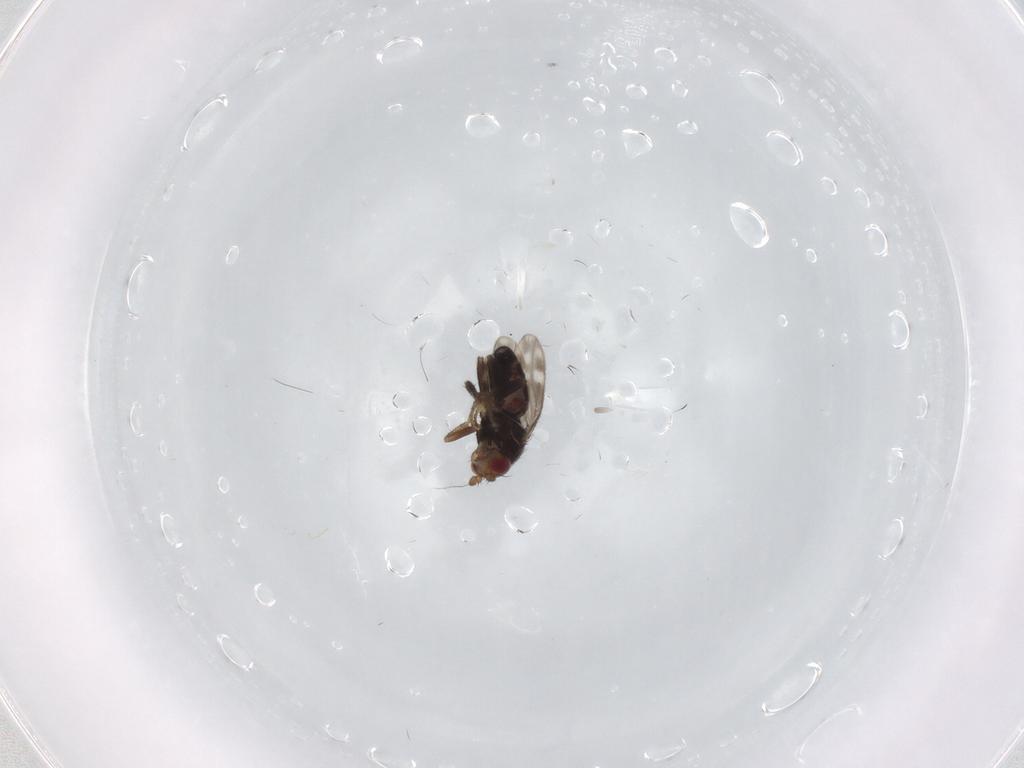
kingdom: Animalia
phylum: Arthropoda
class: Insecta
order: Diptera
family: Sphaeroceridae
